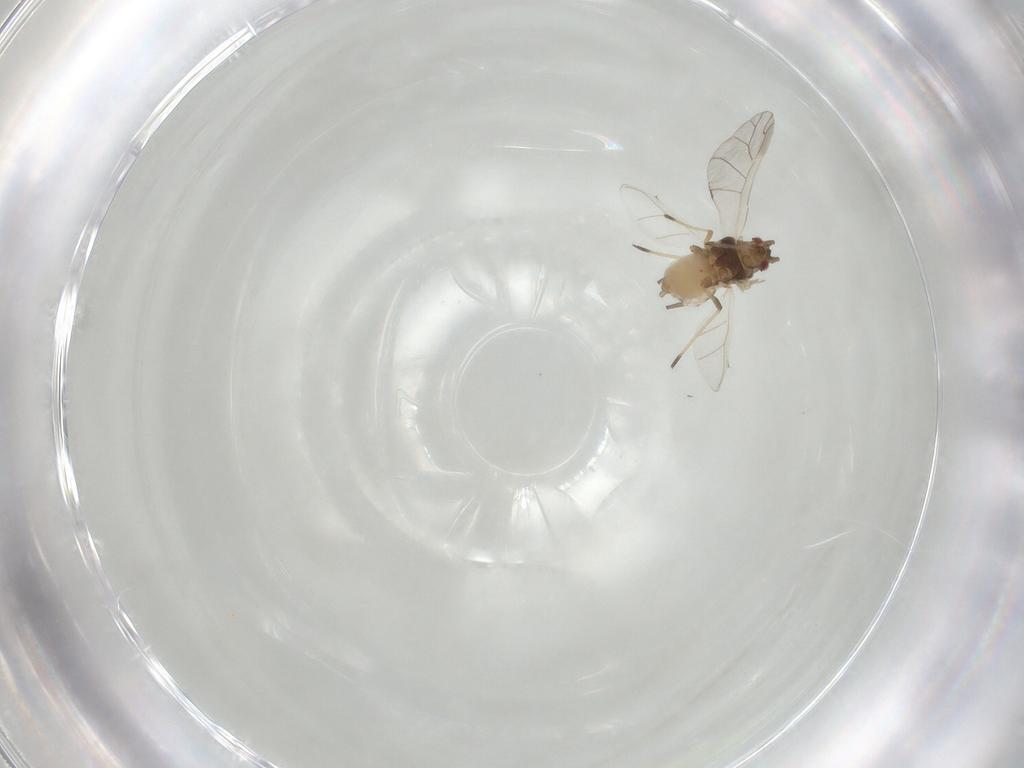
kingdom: Animalia
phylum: Arthropoda
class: Insecta
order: Hemiptera
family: Aphididae
